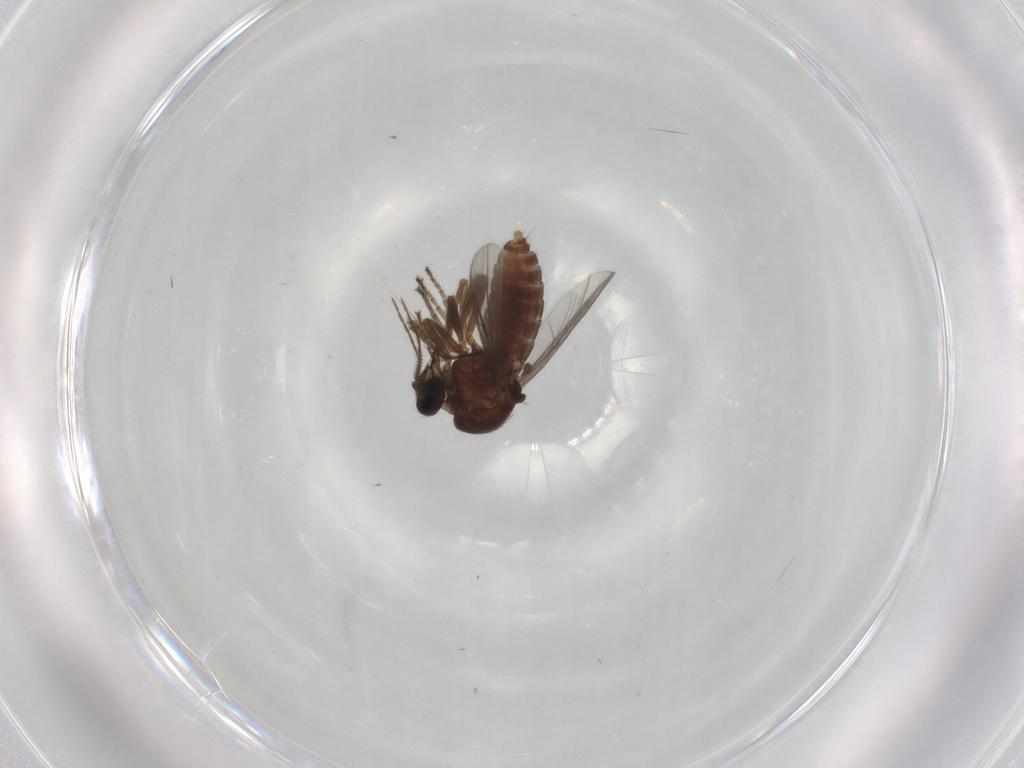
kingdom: Animalia
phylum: Arthropoda
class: Insecta
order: Diptera
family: Ceratopogonidae
